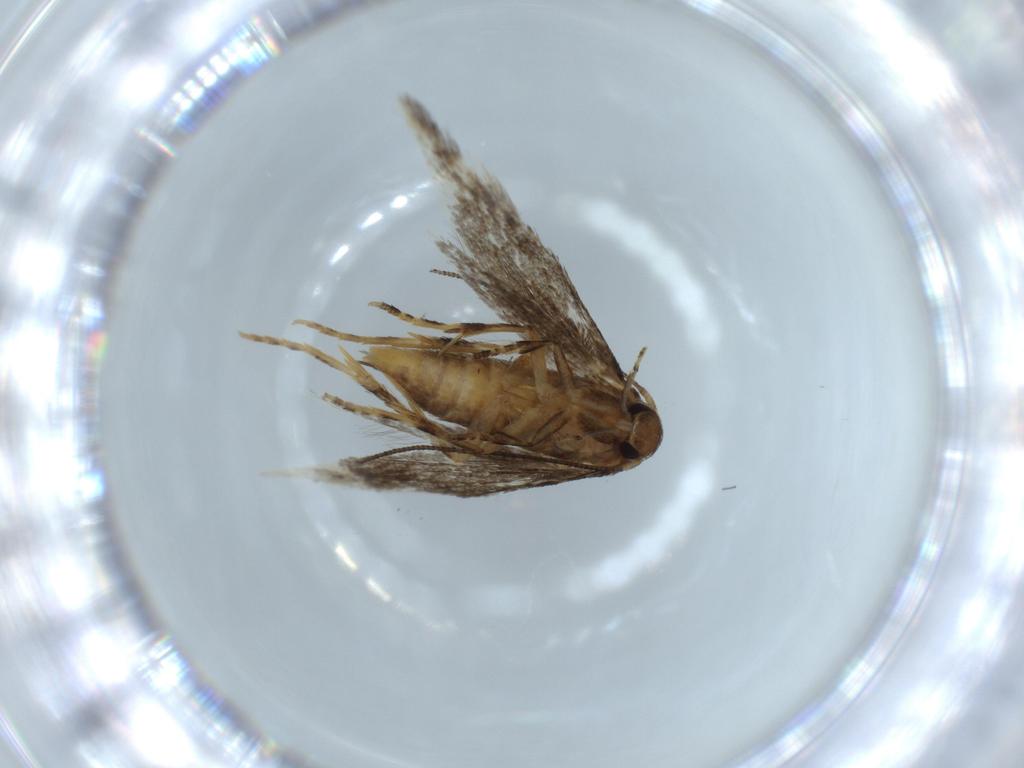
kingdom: Animalia
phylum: Arthropoda
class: Insecta
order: Lepidoptera
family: Elachistidae
